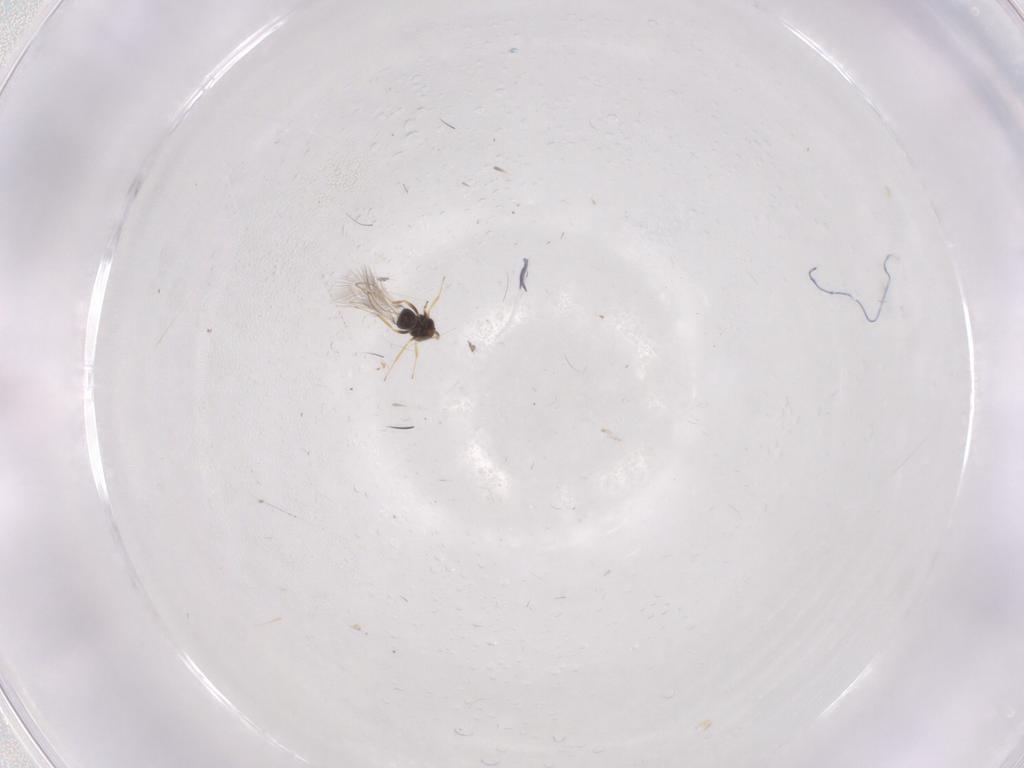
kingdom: Animalia
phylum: Arthropoda
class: Insecta
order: Hymenoptera
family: Mymaridae
